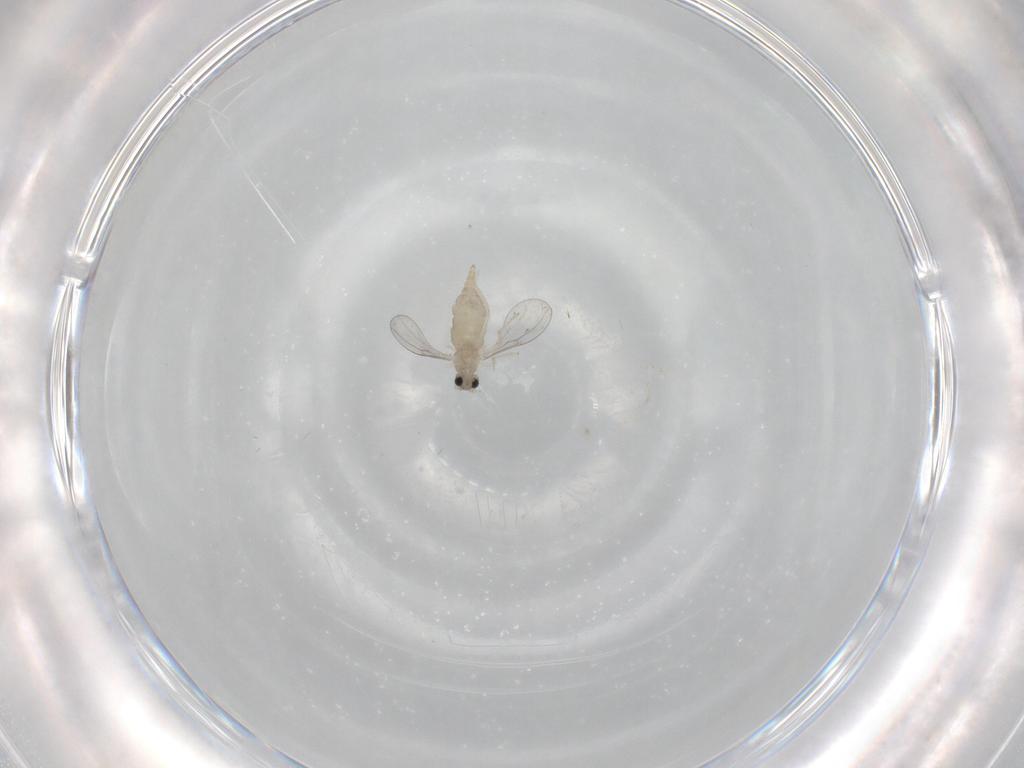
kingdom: Animalia
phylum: Arthropoda
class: Insecta
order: Diptera
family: Cecidomyiidae
